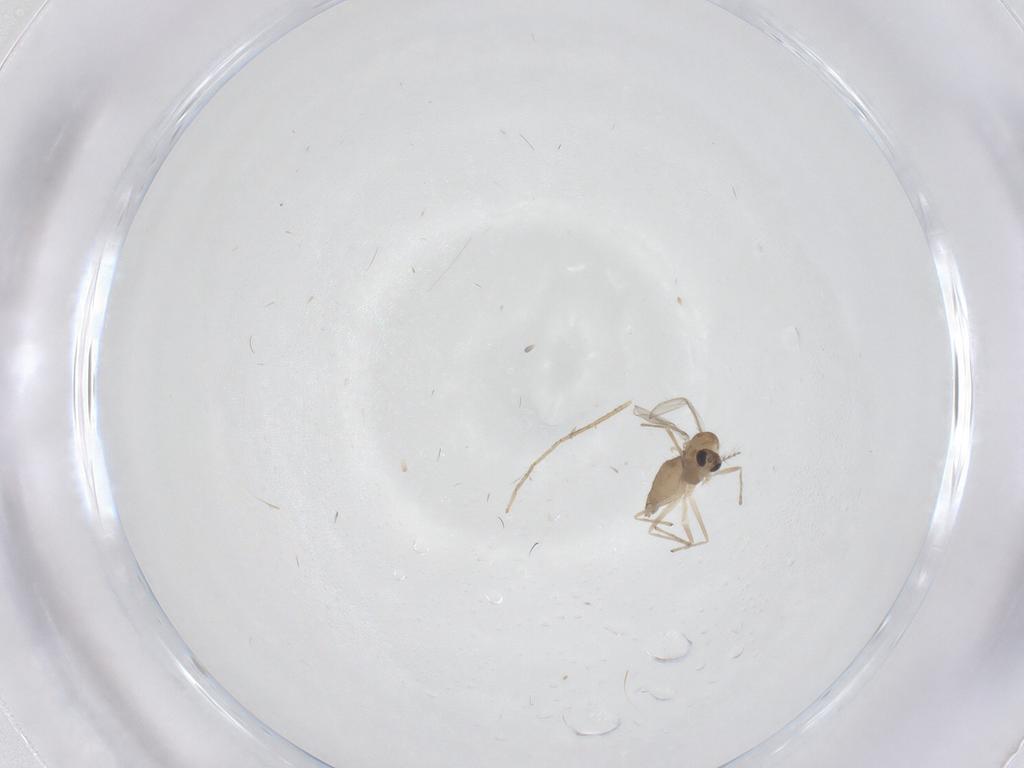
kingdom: Animalia
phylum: Arthropoda
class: Insecta
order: Diptera
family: Chironomidae
